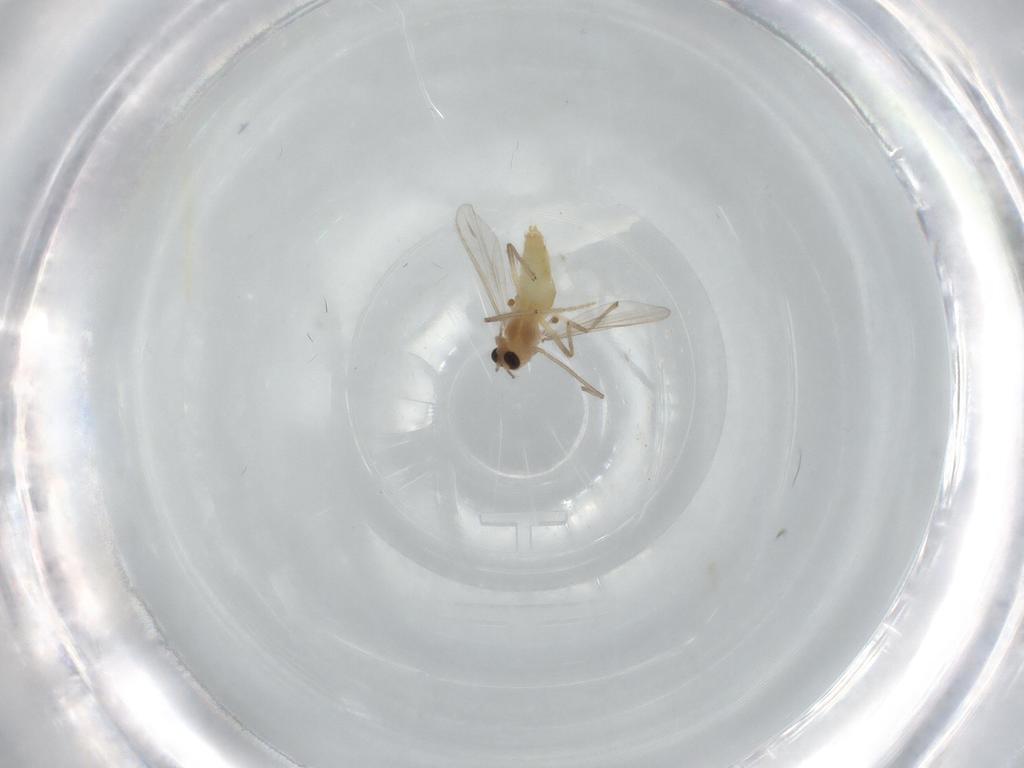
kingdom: Animalia
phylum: Arthropoda
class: Insecta
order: Diptera
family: Chironomidae
